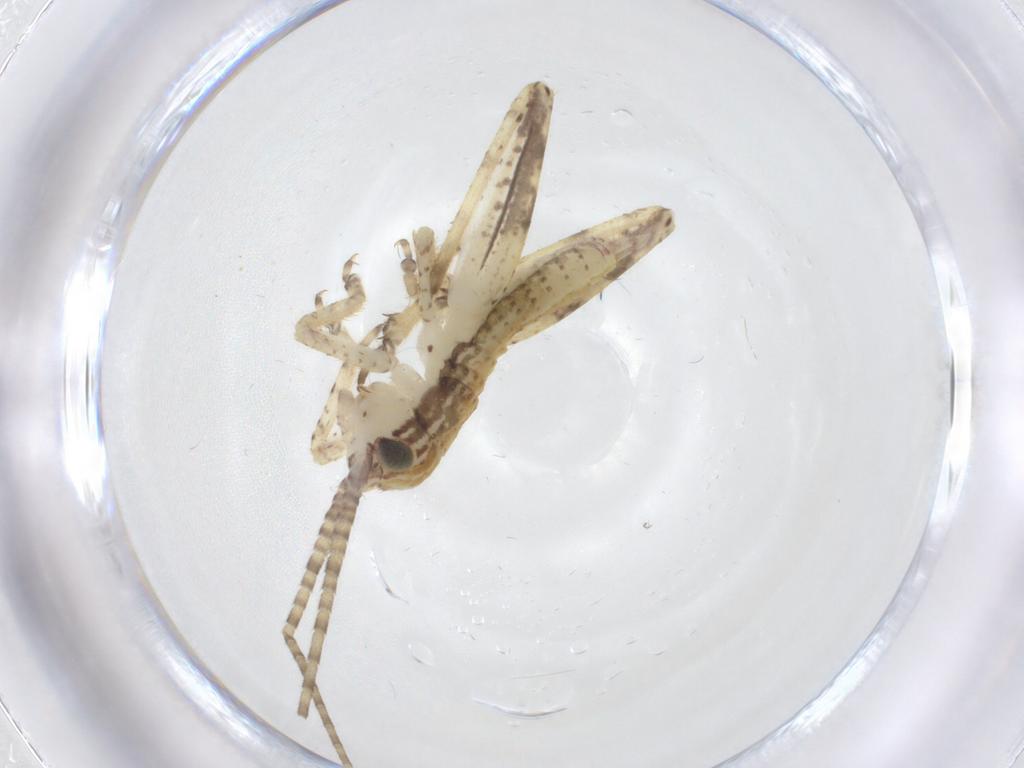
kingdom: Animalia
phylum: Arthropoda
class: Insecta
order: Orthoptera
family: Gryllidae
